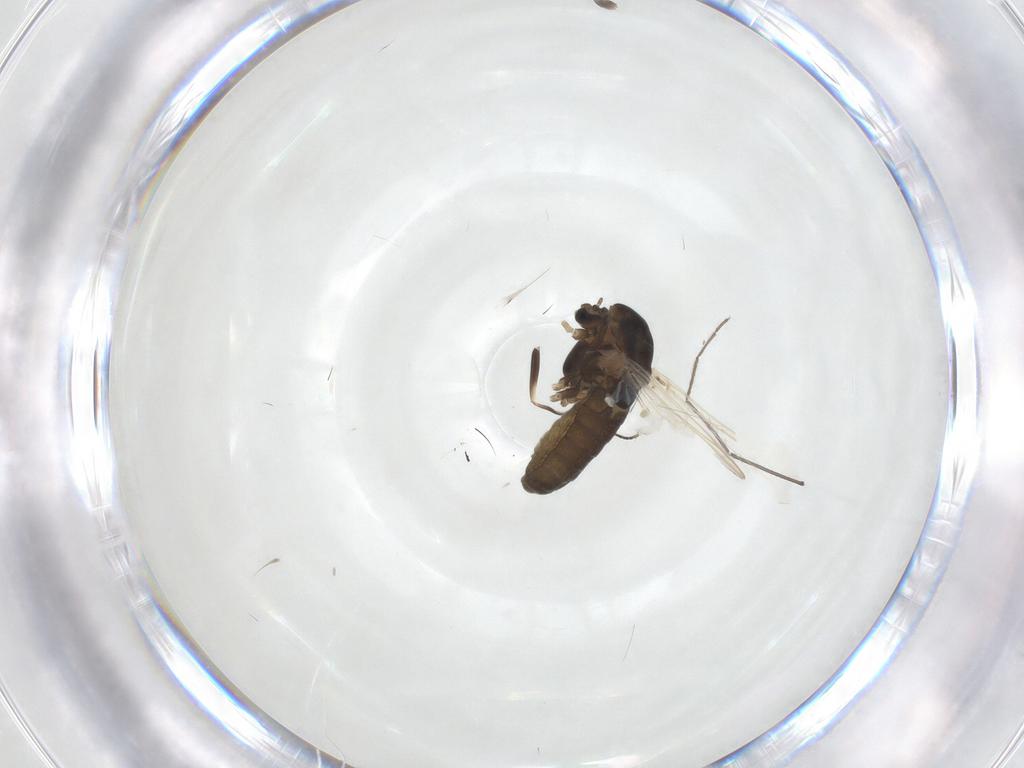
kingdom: Animalia
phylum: Arthropoda
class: Insecta
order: Diptera
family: Mythicomyiidae
